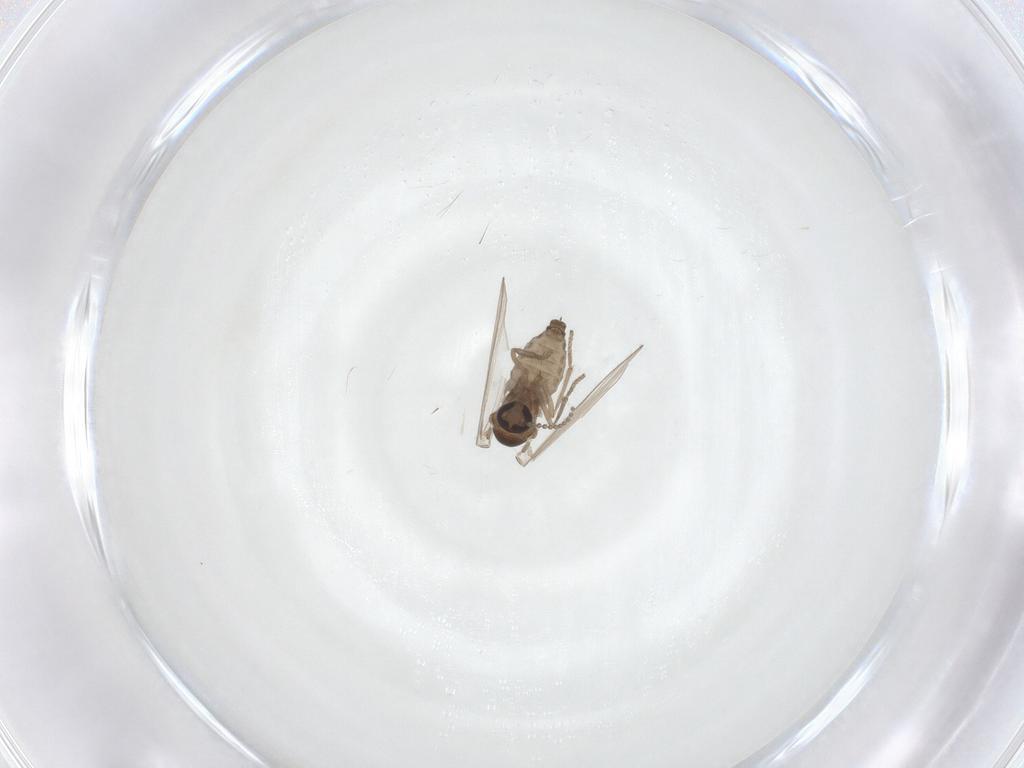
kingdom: Animalia
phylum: Arthropoda
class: Insecta
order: Diptera
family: Psychodidae
